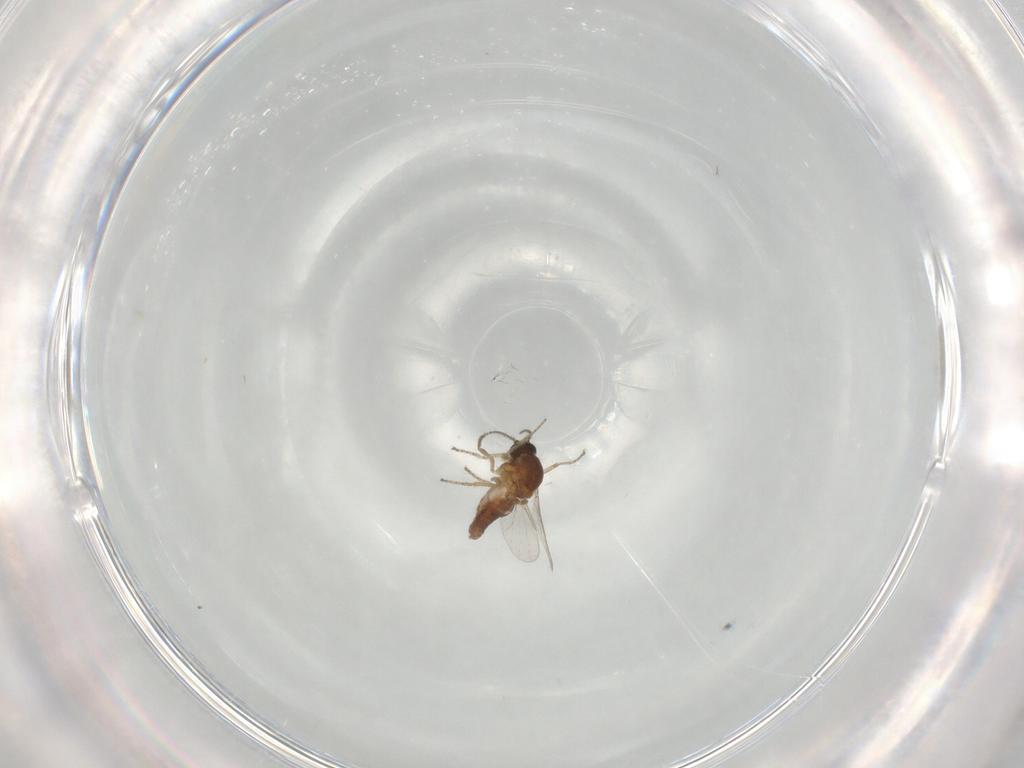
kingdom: Animalia
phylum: Arthropoda
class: Insecta
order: Diptera
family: Ceratopogonidae
